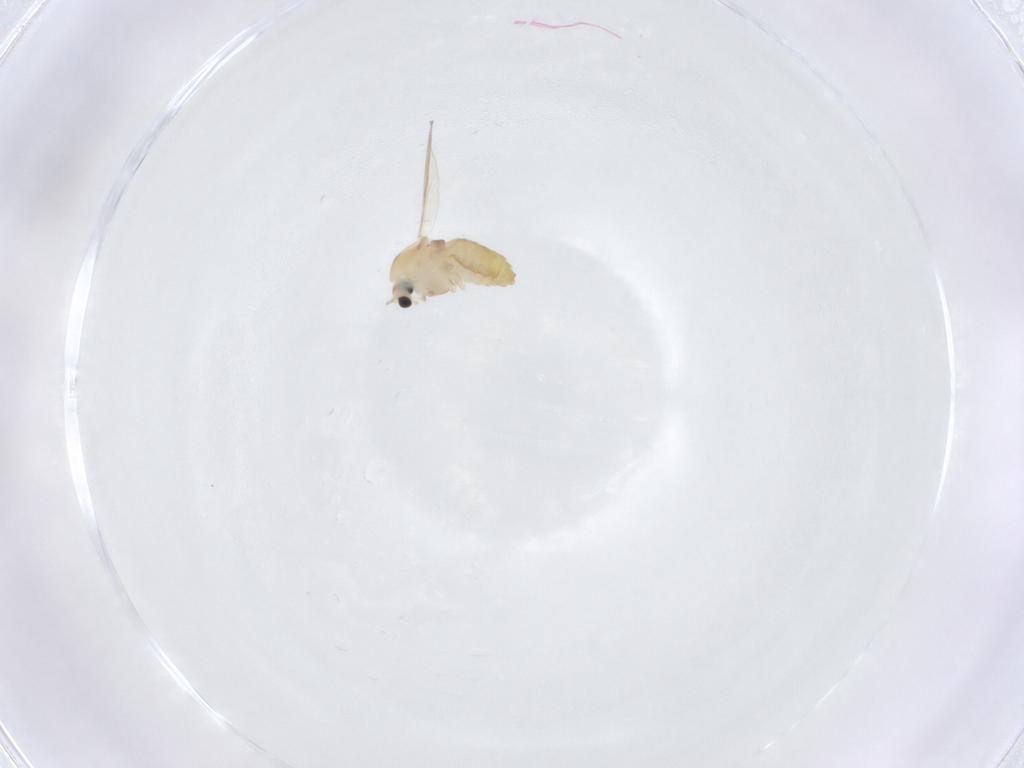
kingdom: Animalia
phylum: Arthropoda
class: Insecta
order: Diptera
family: Chironomidae
